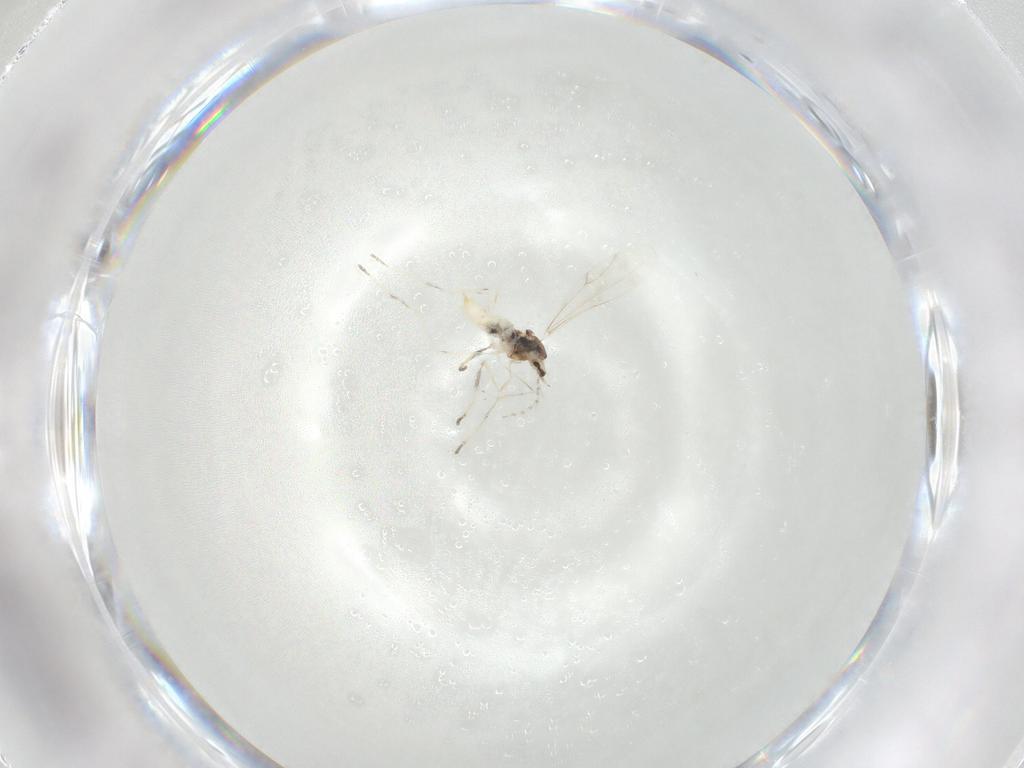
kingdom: Animalia
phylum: Arthropoda
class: Insecta
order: Diptera
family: Cecidomyiidae
